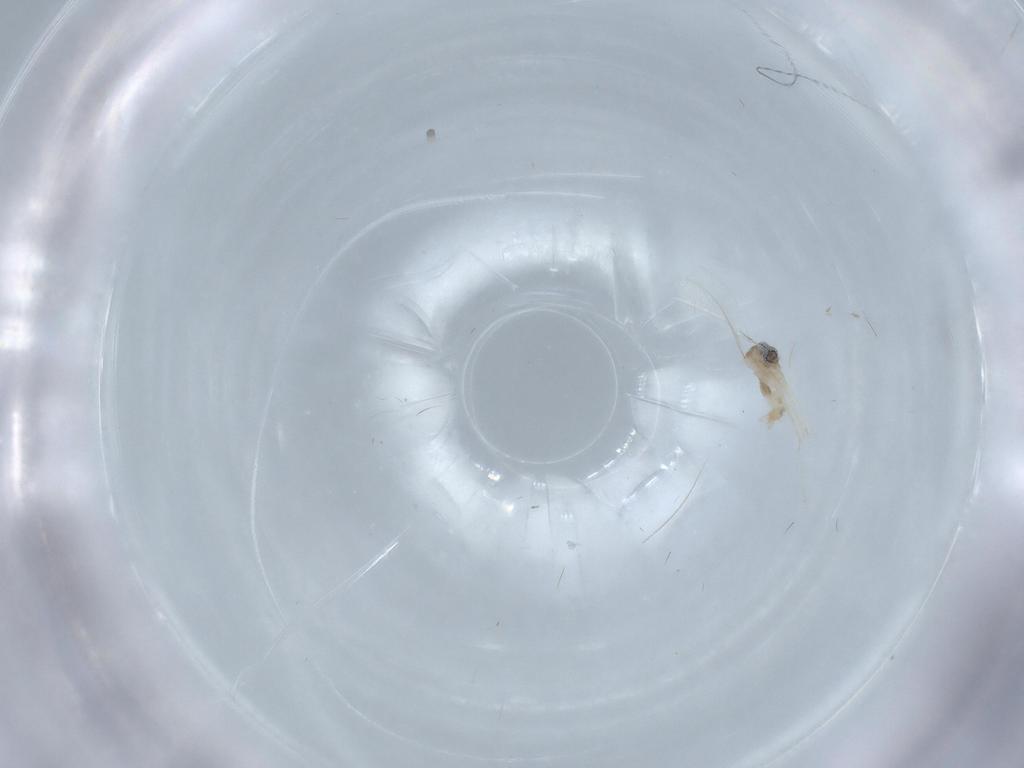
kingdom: Animalia
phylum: Arthropoda
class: Insecta
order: Diptera
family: Cecidomyiidae
